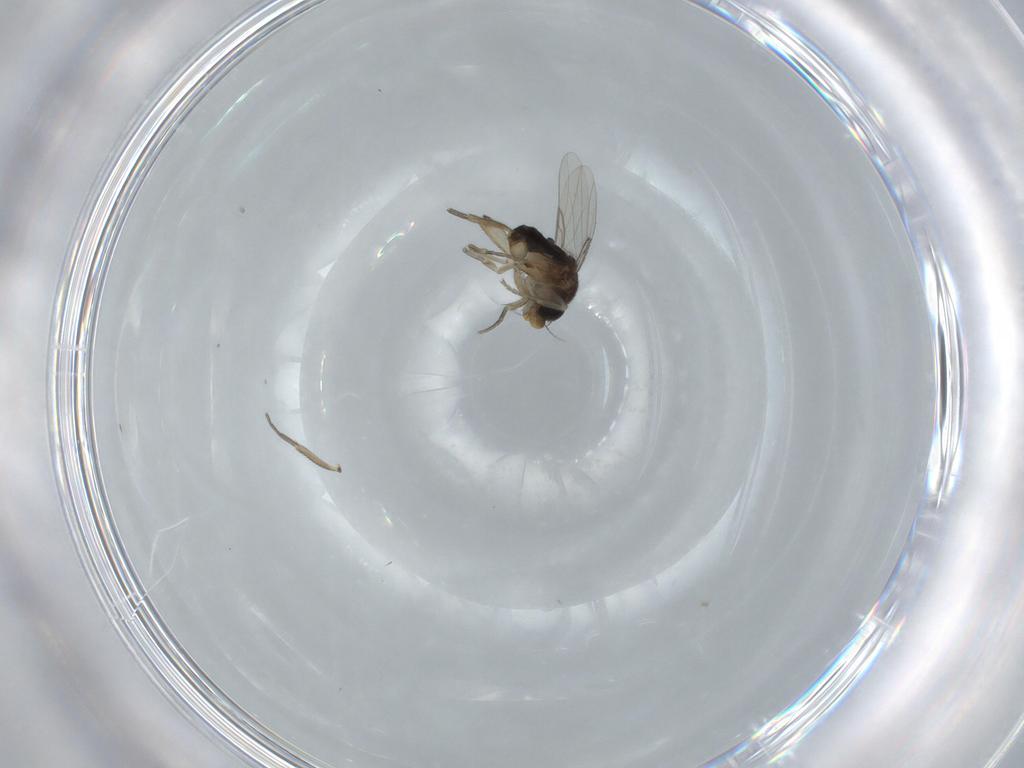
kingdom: Animalia
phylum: Arthropoda
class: Insecta
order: Diptera
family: Phoridae
